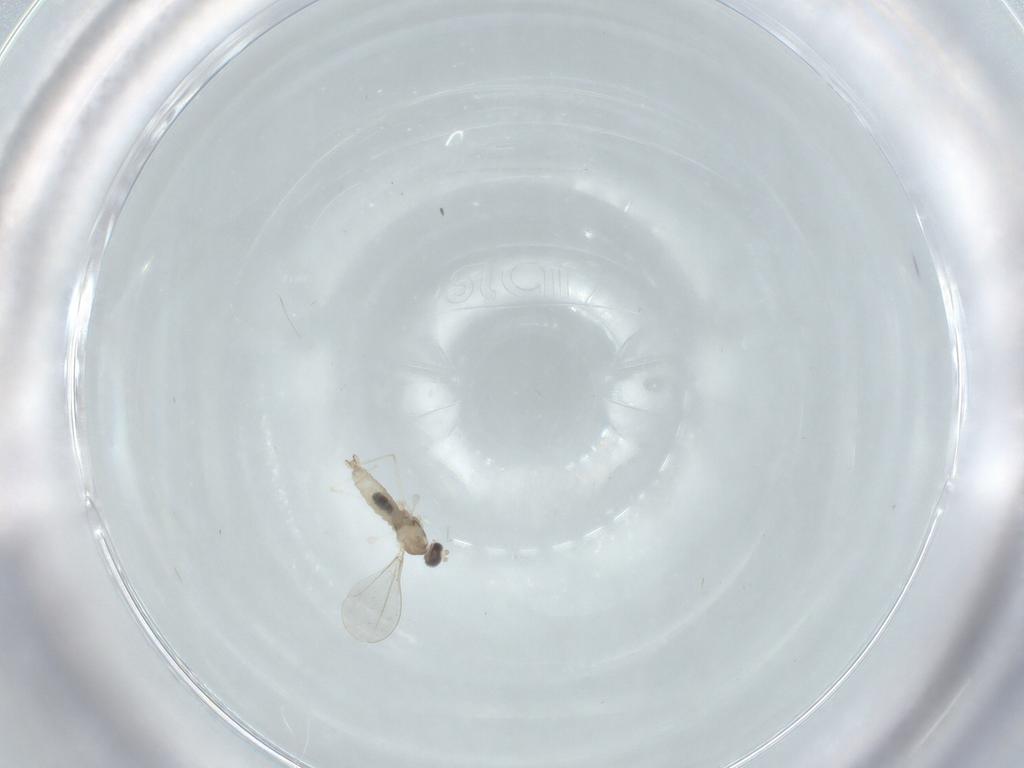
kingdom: Animalia
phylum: Arthropoda
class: Insecta
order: Diptera
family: Cecidomyiidae
